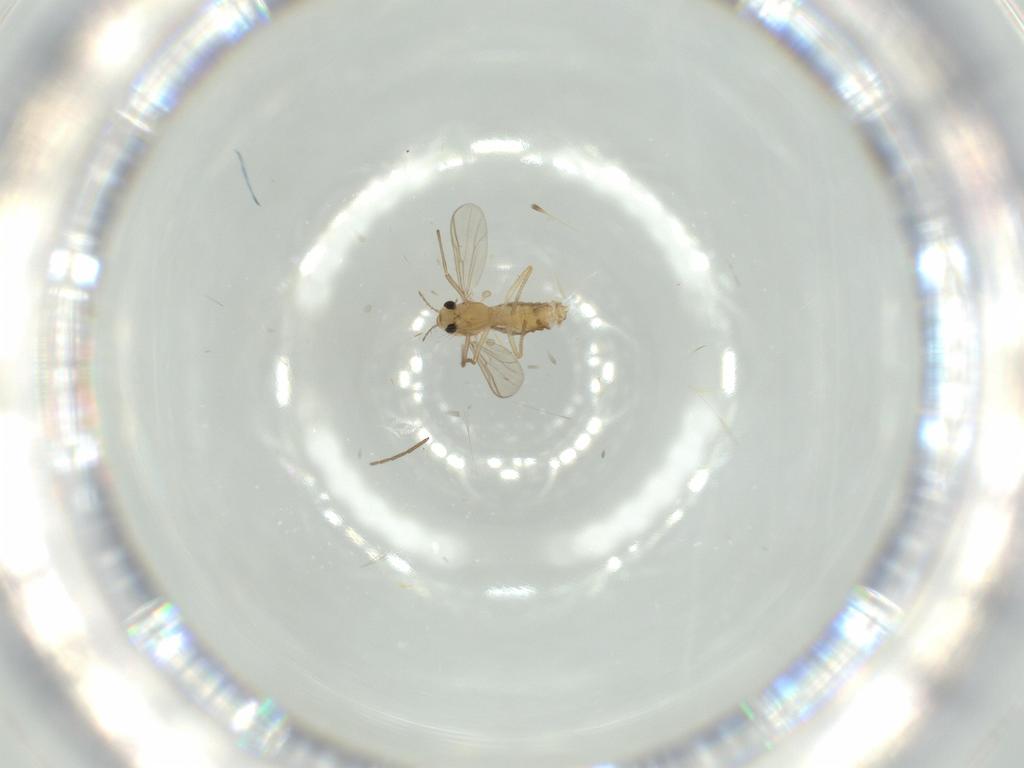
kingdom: Animalia
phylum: Arthropoda
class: Insecta
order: Diptera
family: Chironomidae
